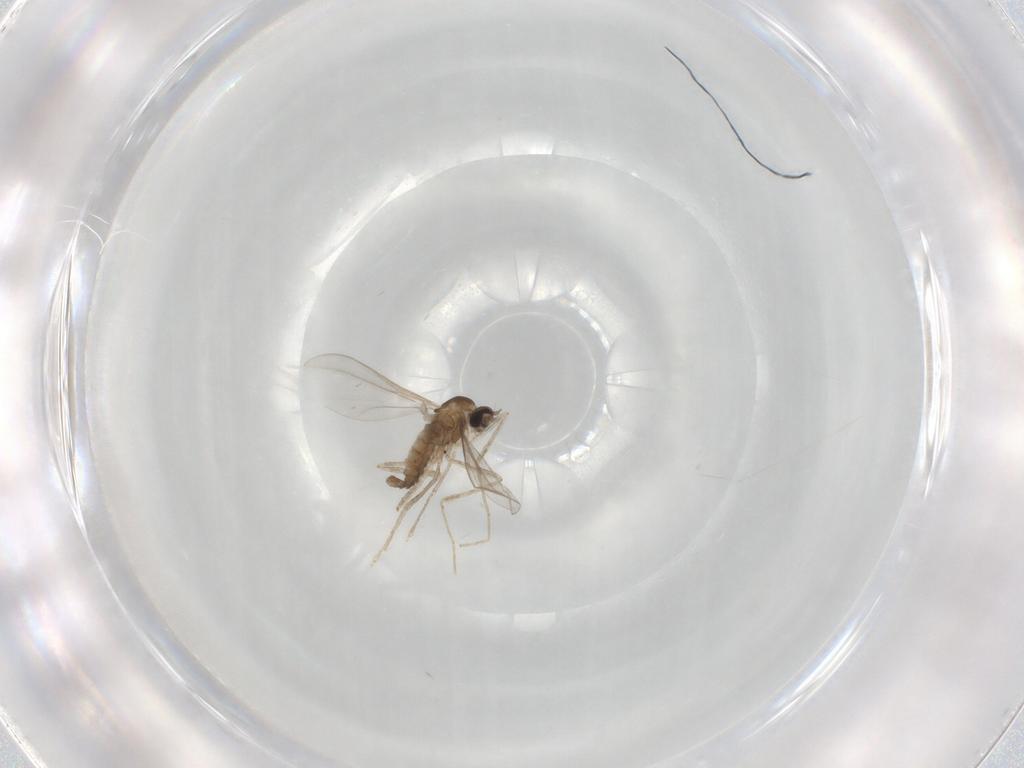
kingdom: Animalia
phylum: Arthropoda
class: Insecta
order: Diptera
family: Cecidomyiidae
